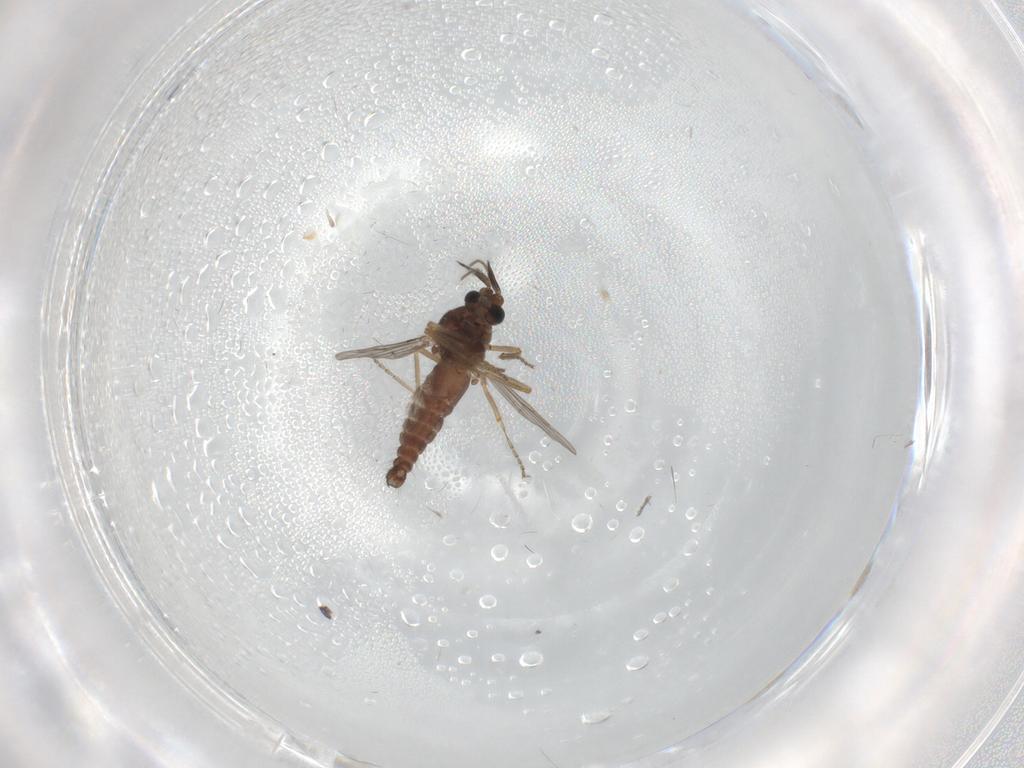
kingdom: Animalia
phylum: Arthropoda
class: Insecta
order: Diptera
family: Ceratopogonidae
